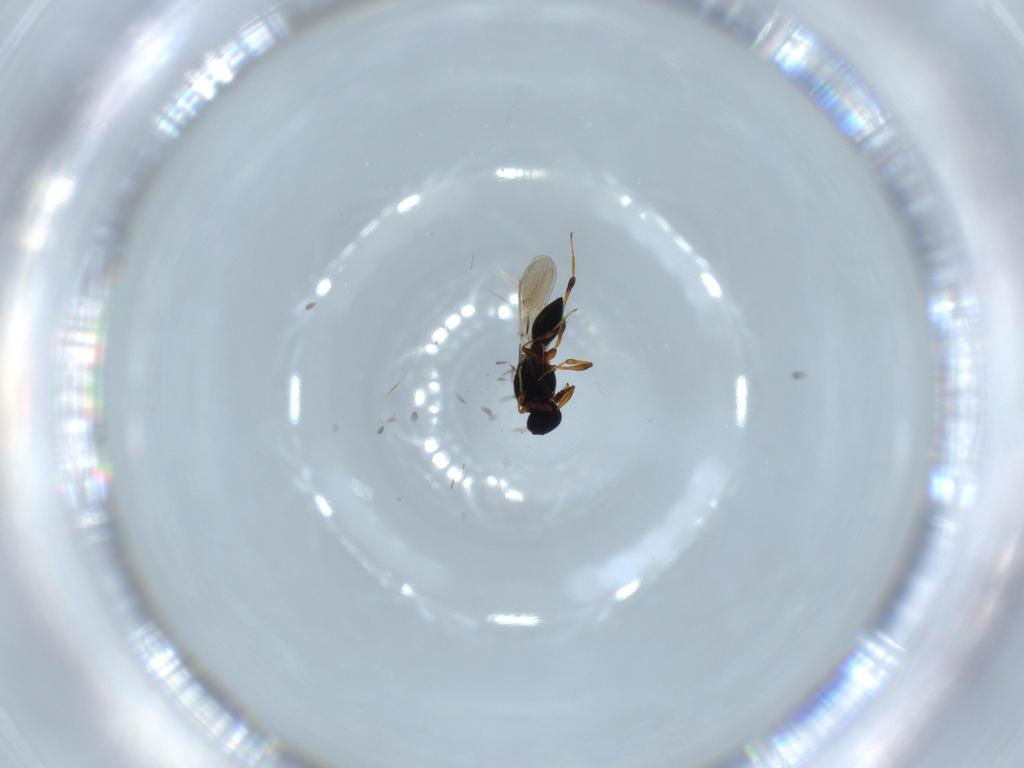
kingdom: Animalia
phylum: Arthropoda
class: Insecta
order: Hymenoptera
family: Platygastridae
